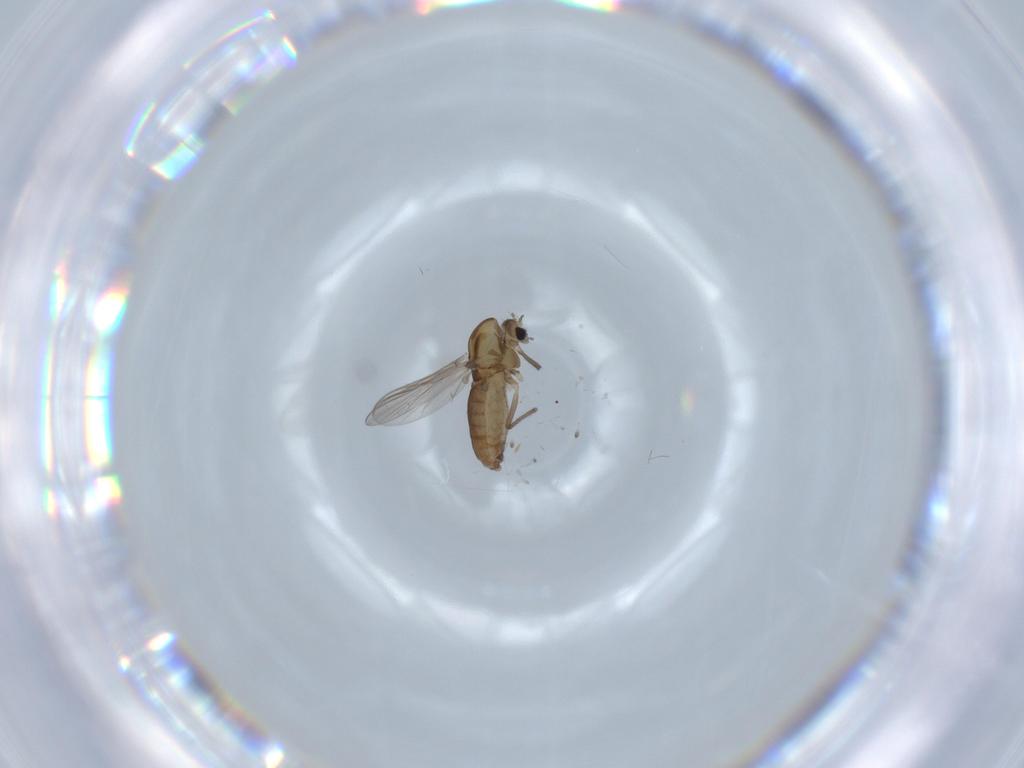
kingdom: Animalia
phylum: Arthropoda
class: Insecta
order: Diptera
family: Chironomidae
